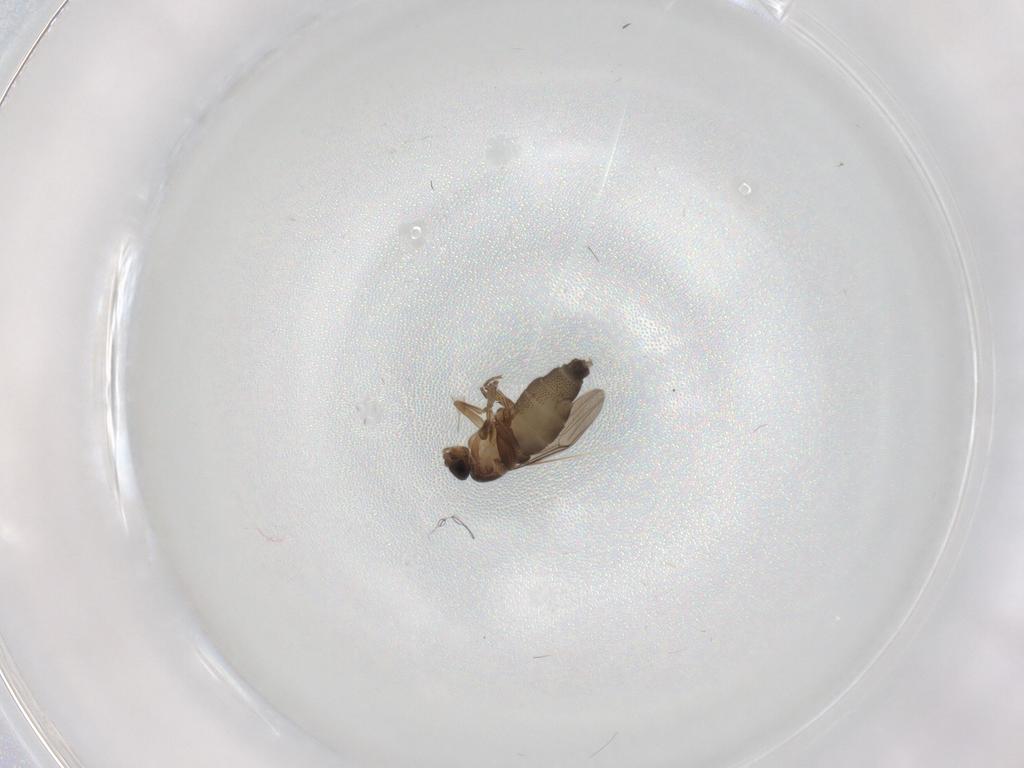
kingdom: Animalia
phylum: Arthropoda
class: Insecta
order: Diptera
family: Phoridae
